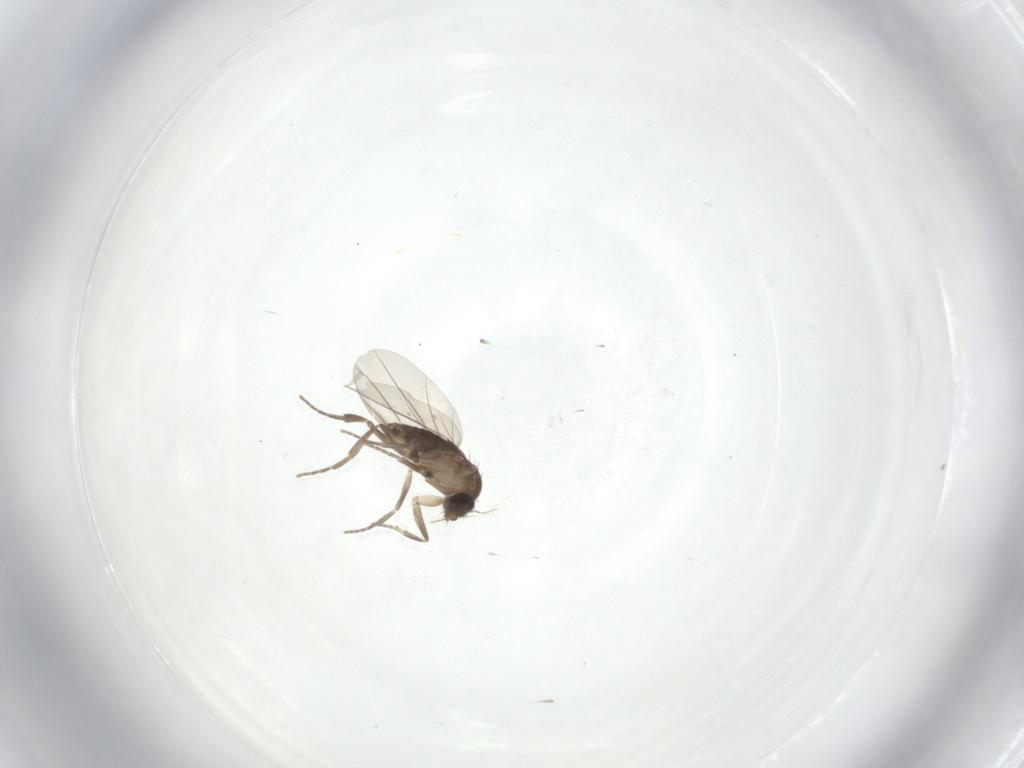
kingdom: Animalia
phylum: Arthropoda
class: Insecta
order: Diptera
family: Phoridae
